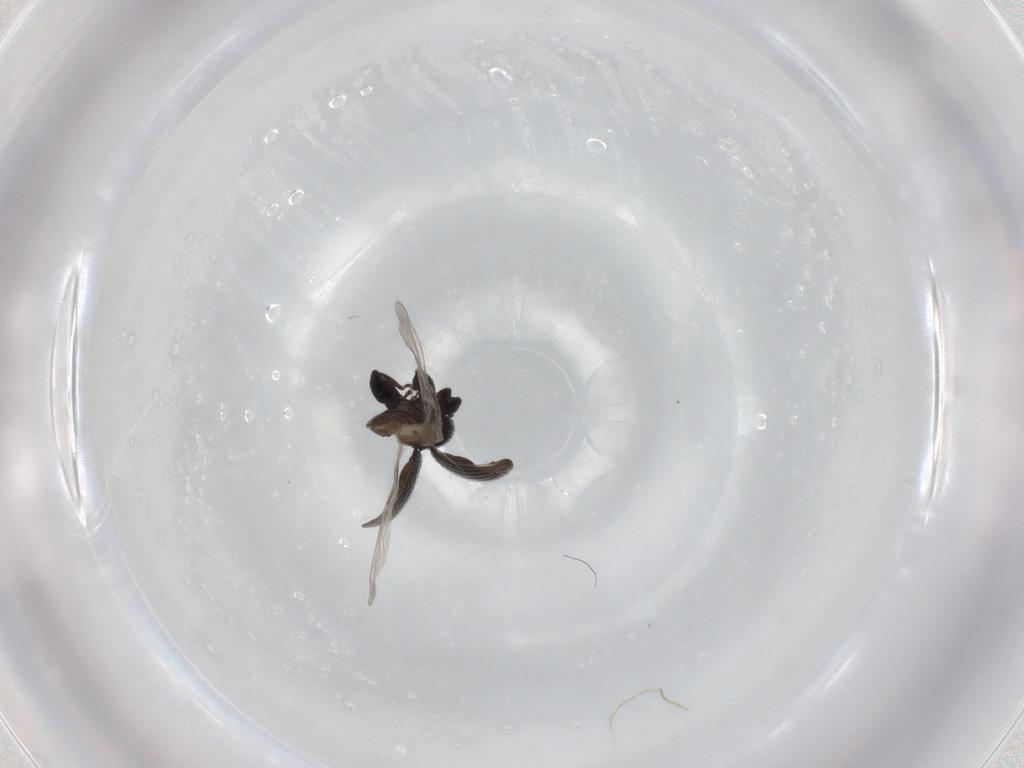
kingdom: Animalia
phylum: Arthropoda
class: Insecta
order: Coleoptera
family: Curculionidae
